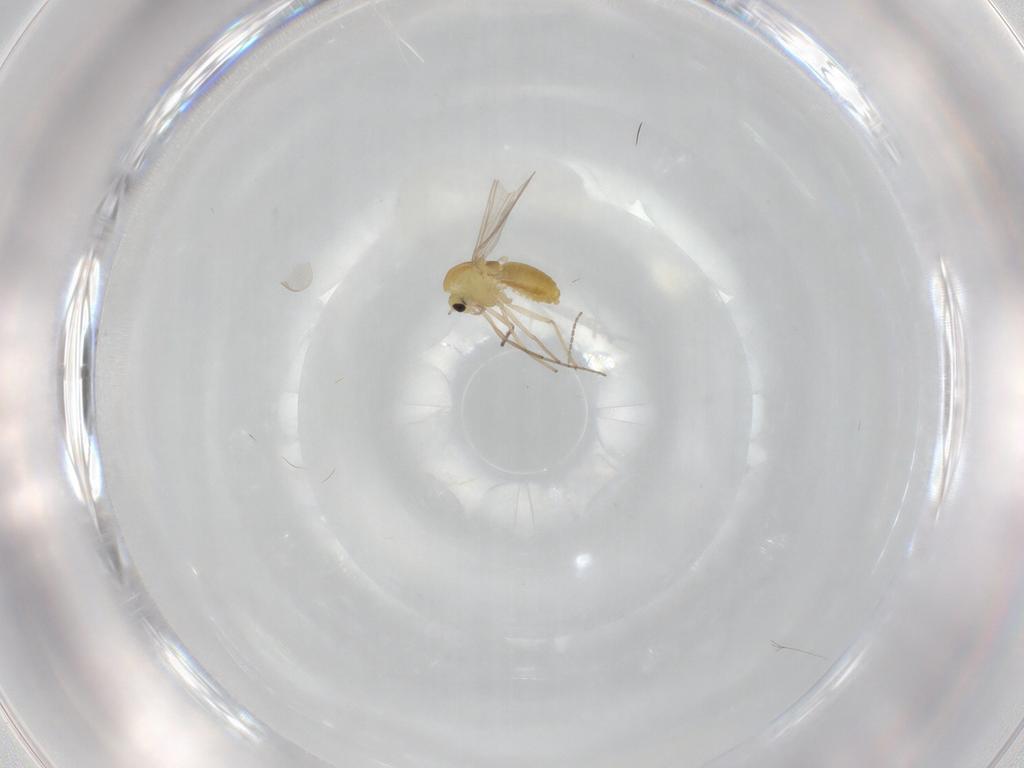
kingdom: Animalia
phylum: Arthropoda
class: Insecta
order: Diptera
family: Chironomidae
